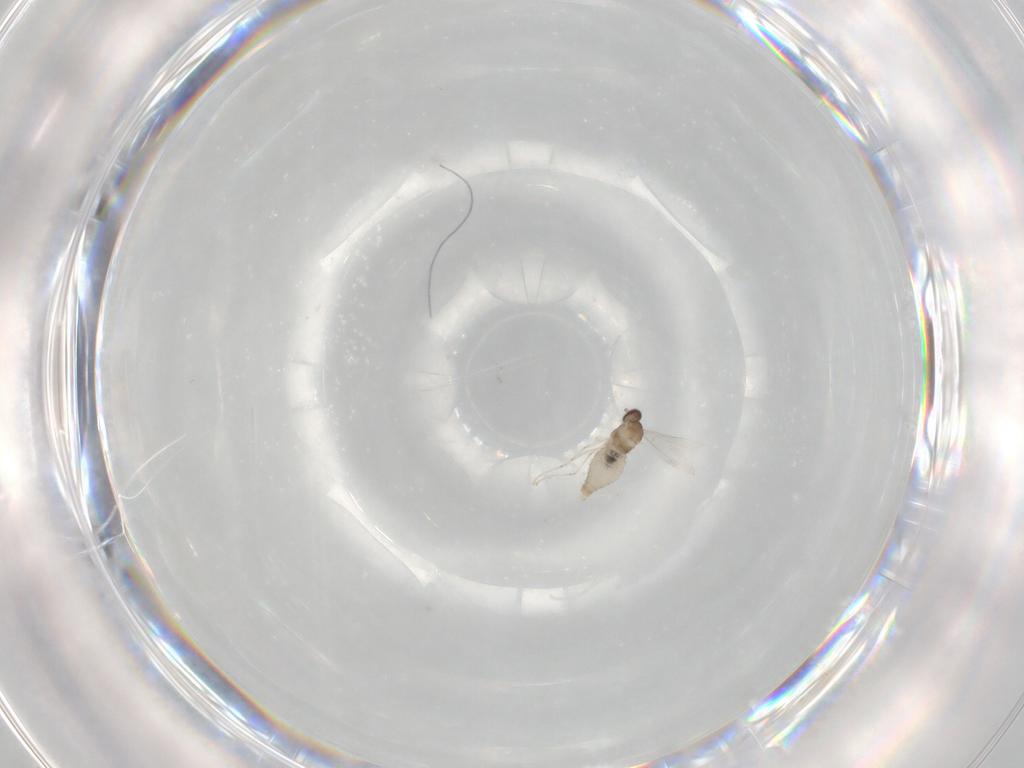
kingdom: Animalia
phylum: Arthropoda
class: Insecta
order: Diptera
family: Cecidomyiidae
